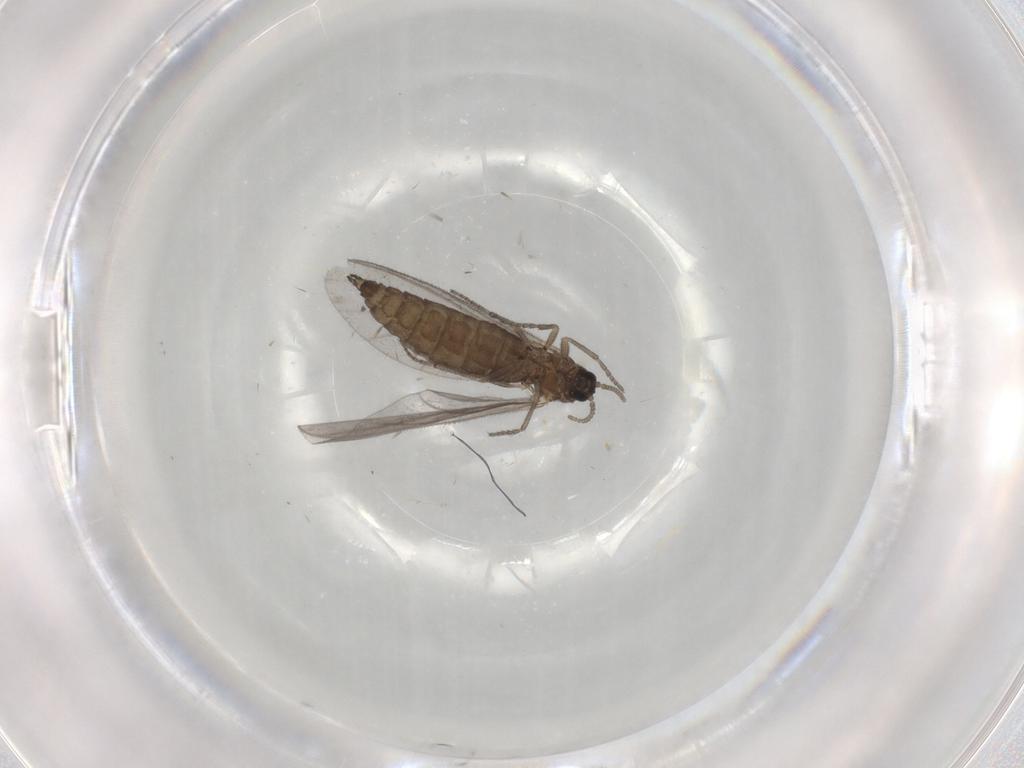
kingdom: Animalia
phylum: Arthropoda
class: Insecta
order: Diptera
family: Sciaridae
